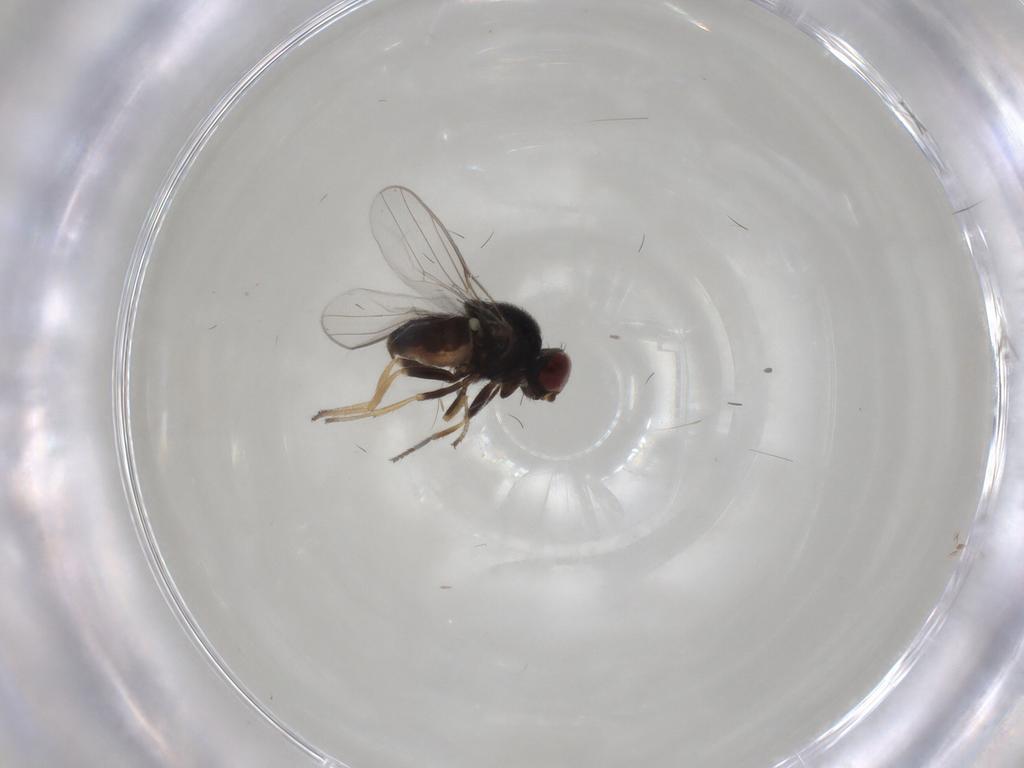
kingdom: Animalia
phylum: Arthropoda
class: Insecta
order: Diptera
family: Chloropidae
